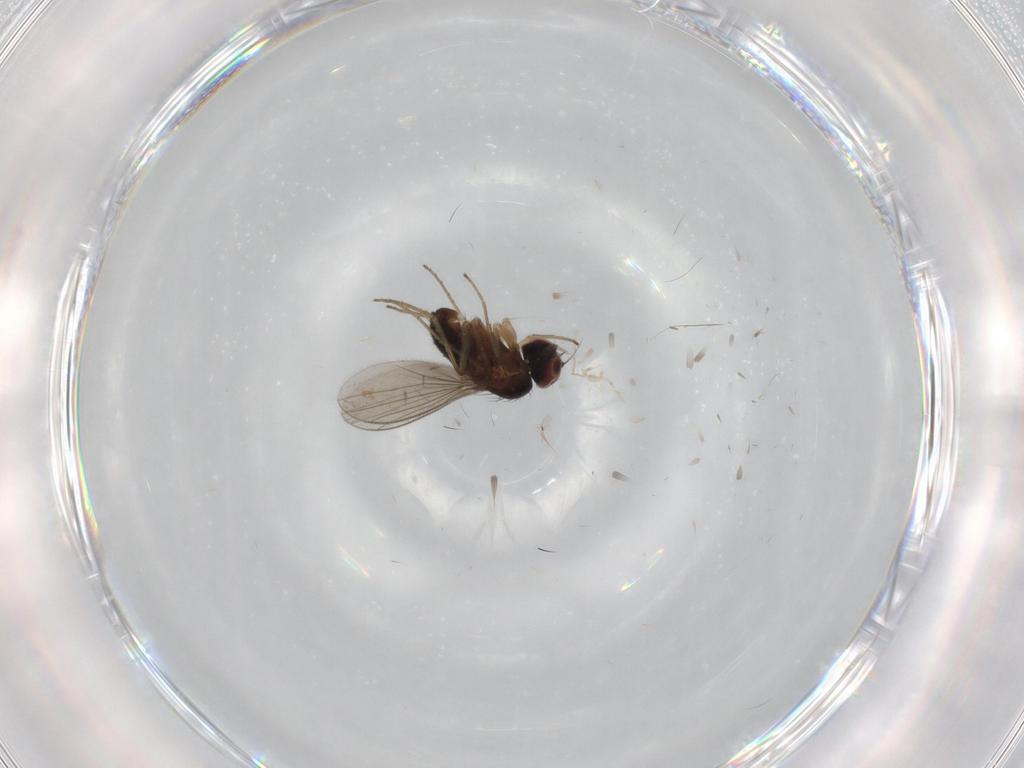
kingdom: Animalia
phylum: Arthropoda
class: Insecta
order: Diptera
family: Dolichopodidae
